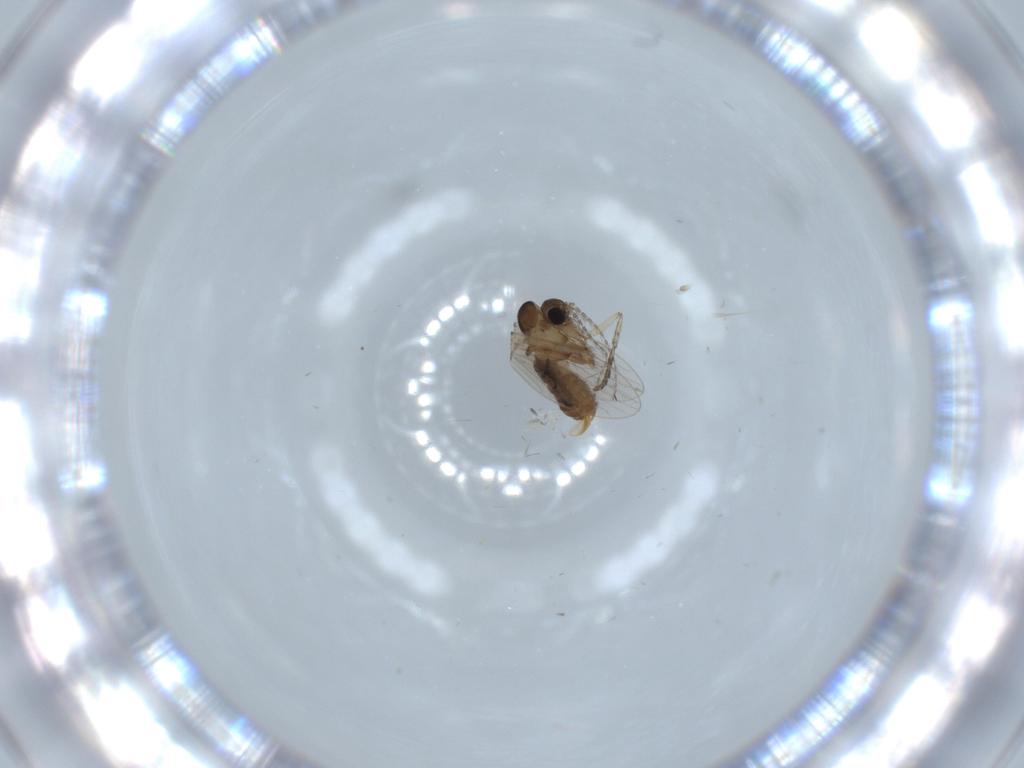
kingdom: Animalia
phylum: Arthropoda
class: Insecta
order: Diptera
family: Psychodidae
